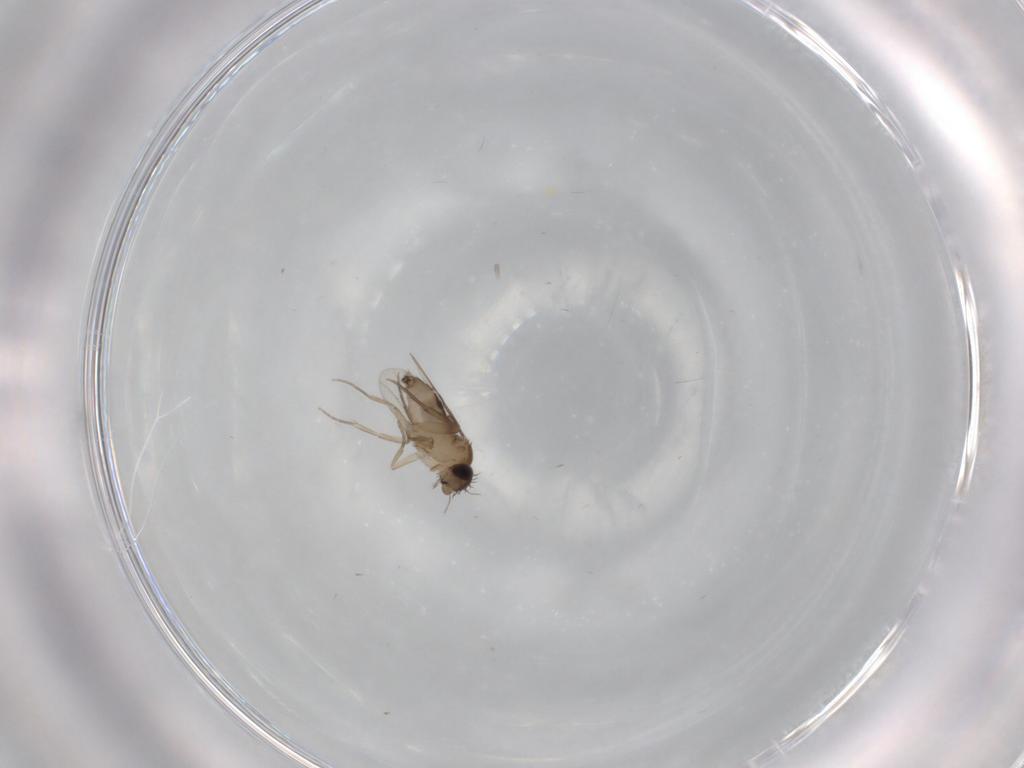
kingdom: Animalia
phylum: Arthropoda
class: Insecta
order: Diptera
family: Phoridae
